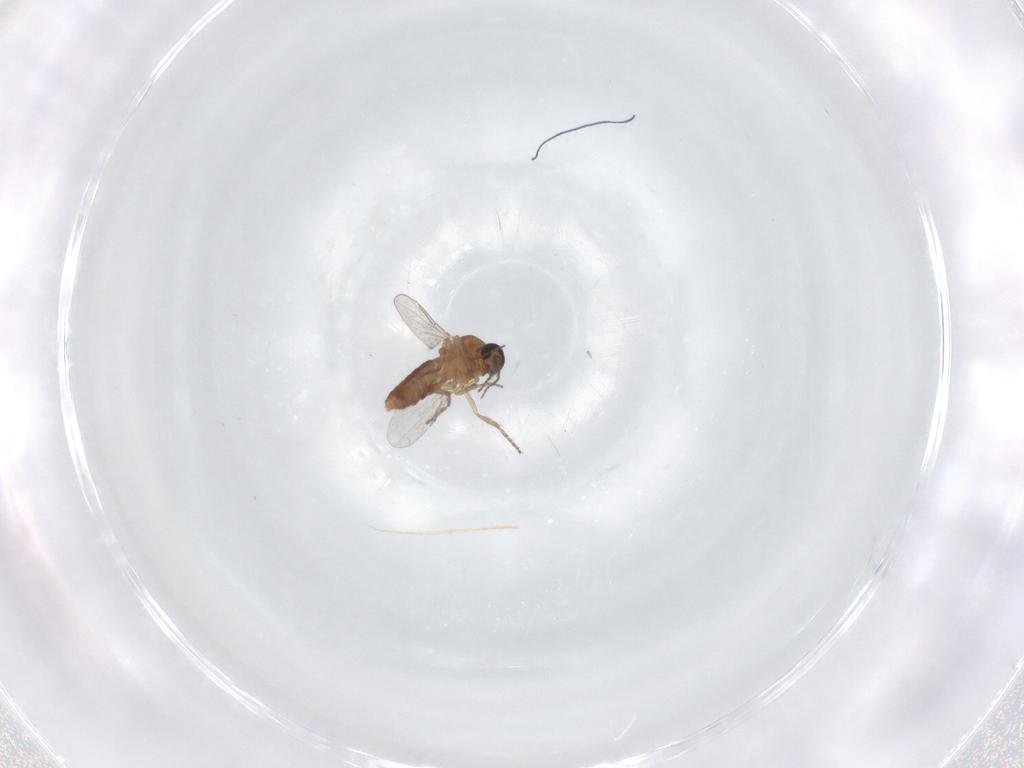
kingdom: Animalia
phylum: Arthropoda
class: Insecta
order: Diptera
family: Ceratopogonidae
